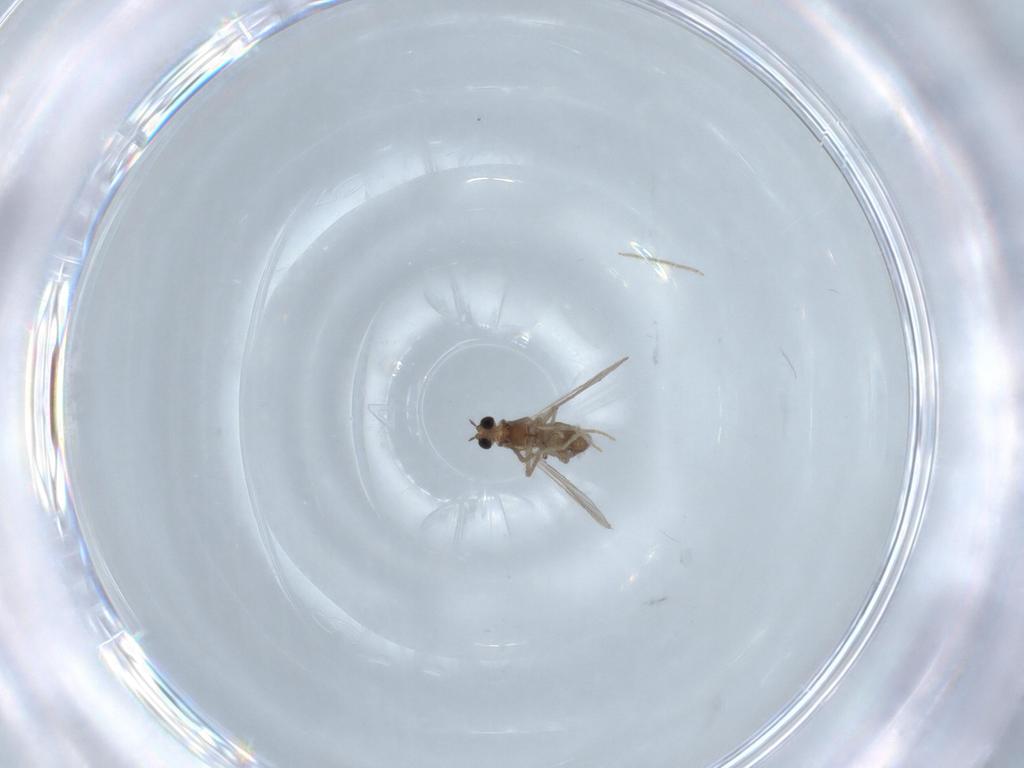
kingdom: Animalia
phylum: Arthropoda
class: Insecta
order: Diptera
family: Chironomidae
